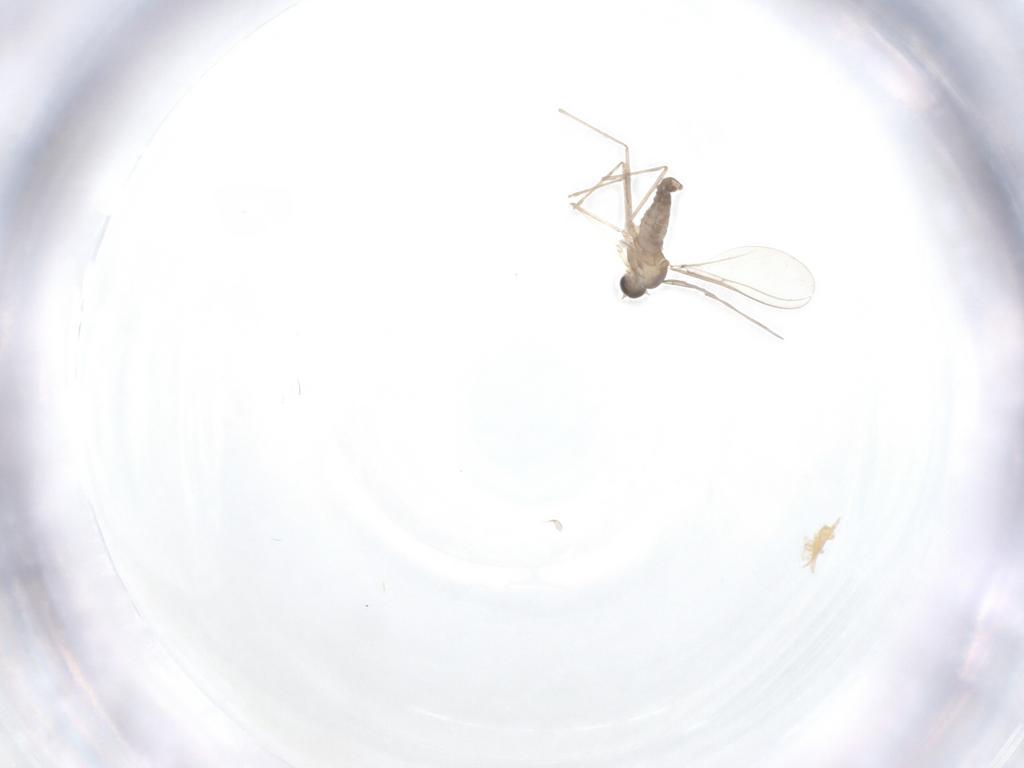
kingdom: Animalia
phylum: Arthropoda
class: Insecta
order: Diptera
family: Cecidomyiidae
